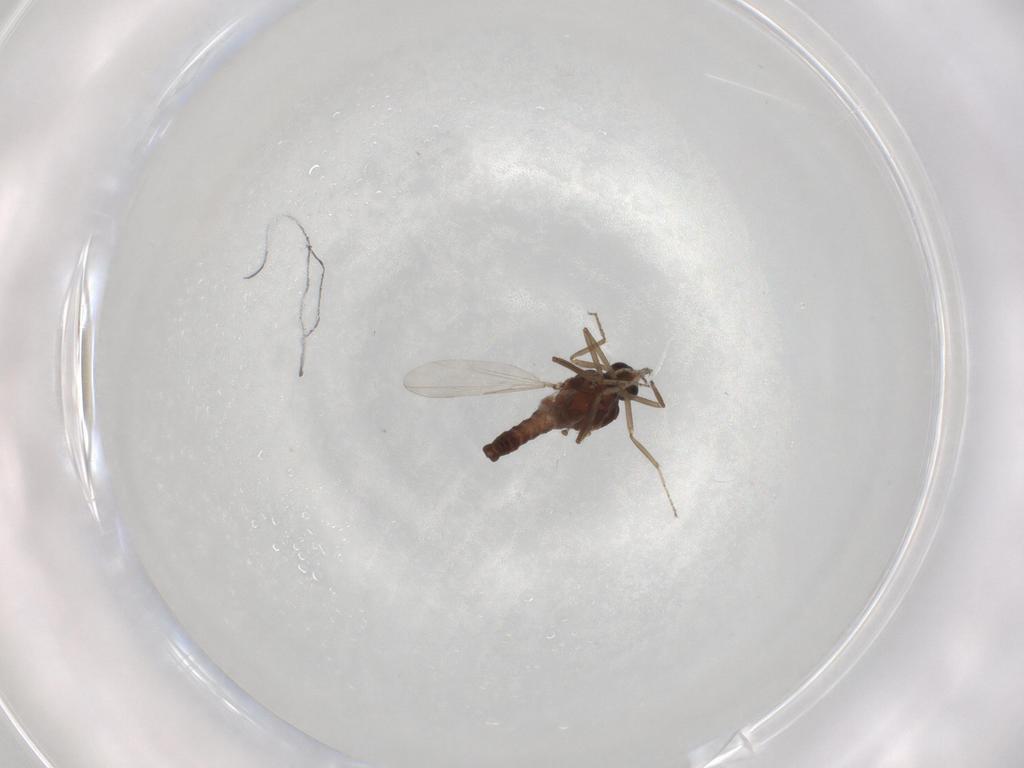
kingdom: Animalia
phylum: Arthropoda
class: Insecta
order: Diptera
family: Ceratopogonidae
